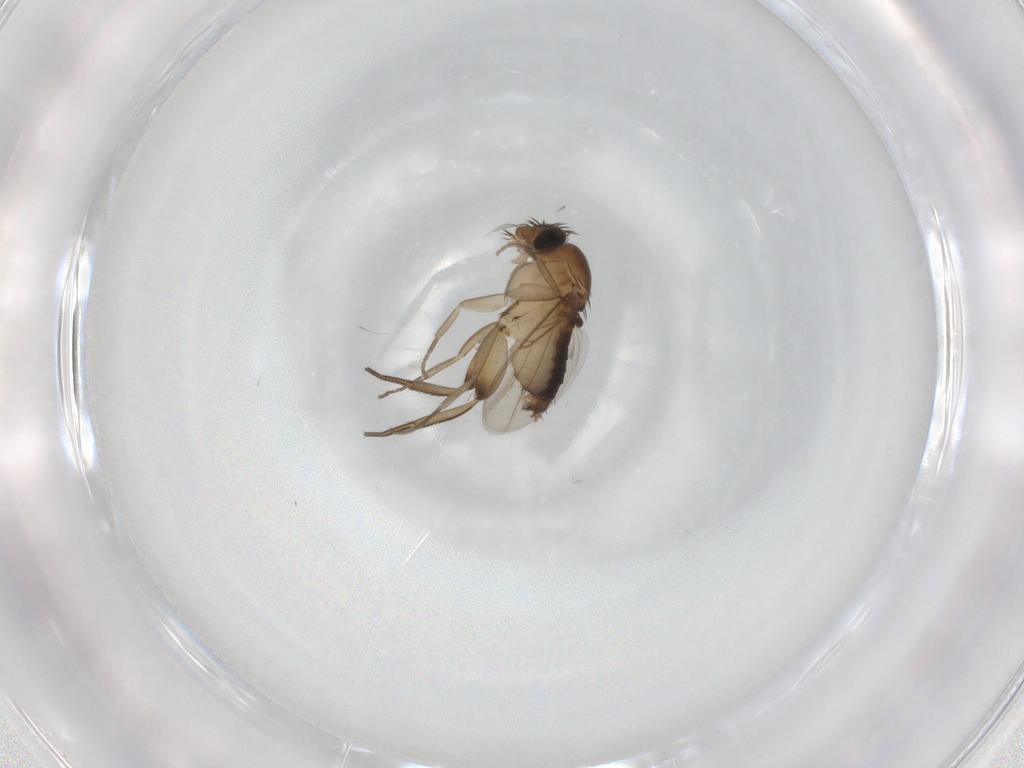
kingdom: Animalia
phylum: Arthropoda
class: Insecta
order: Diptera
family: Phoridae
